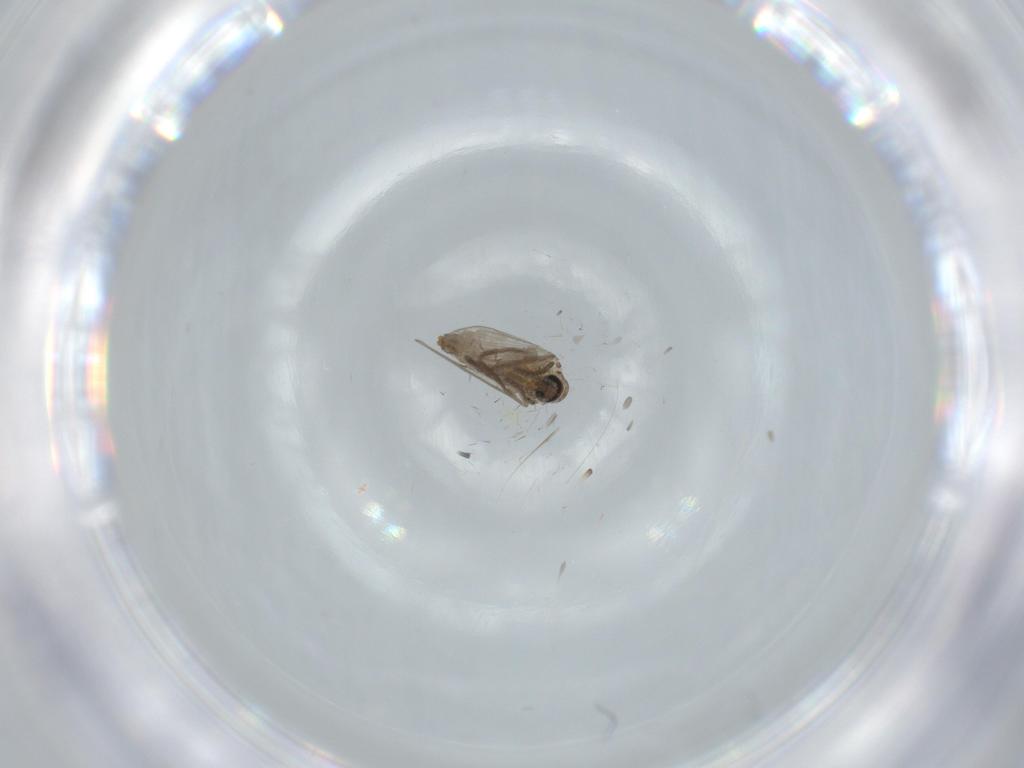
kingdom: Animalia
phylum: Arthropoda
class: Insecta
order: Diptera
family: Psychodidae
